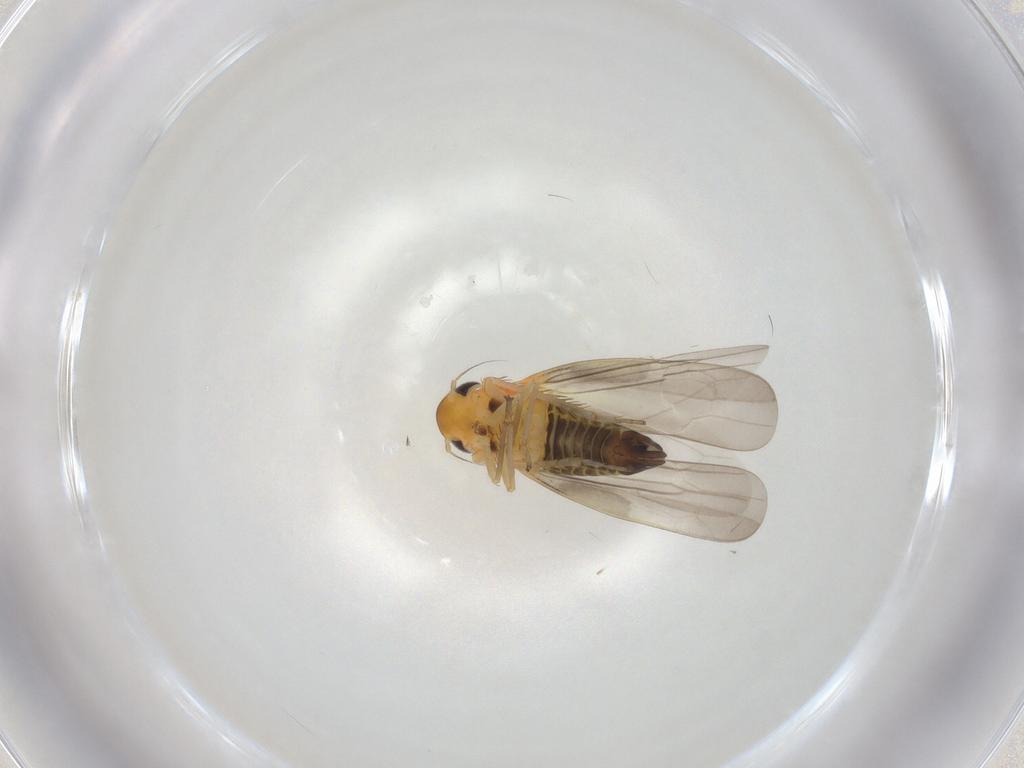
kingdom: Animalia
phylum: Arthropoda
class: Insecta
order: Hemiptera
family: Cicadellidae
